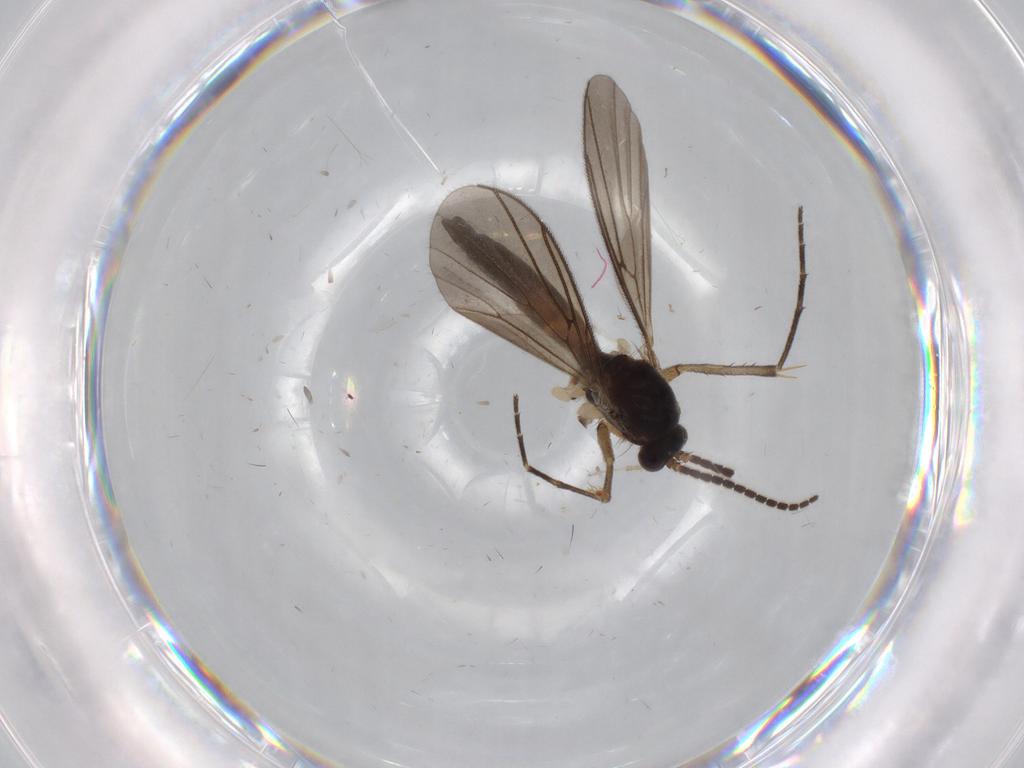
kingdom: Animalia
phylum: Arthropoda
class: Insecta
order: Diptera
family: Mycetophilidae
